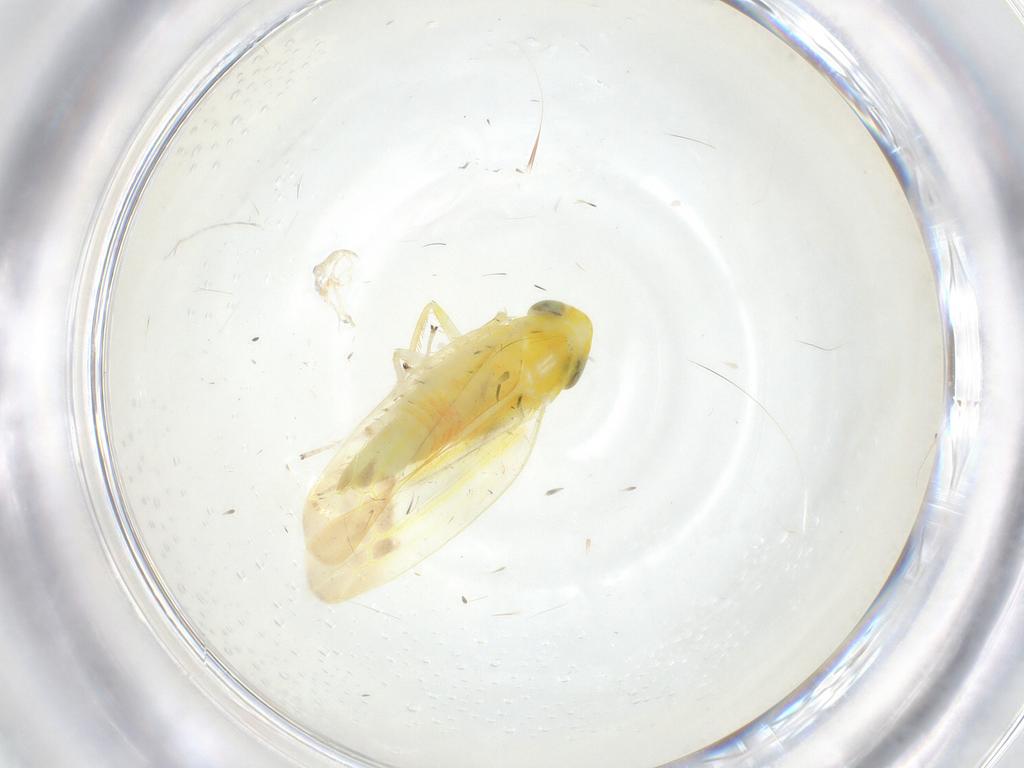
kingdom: Animalia
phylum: Arthropoda
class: Insecta
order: Hemiptera
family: Cicadellidae
